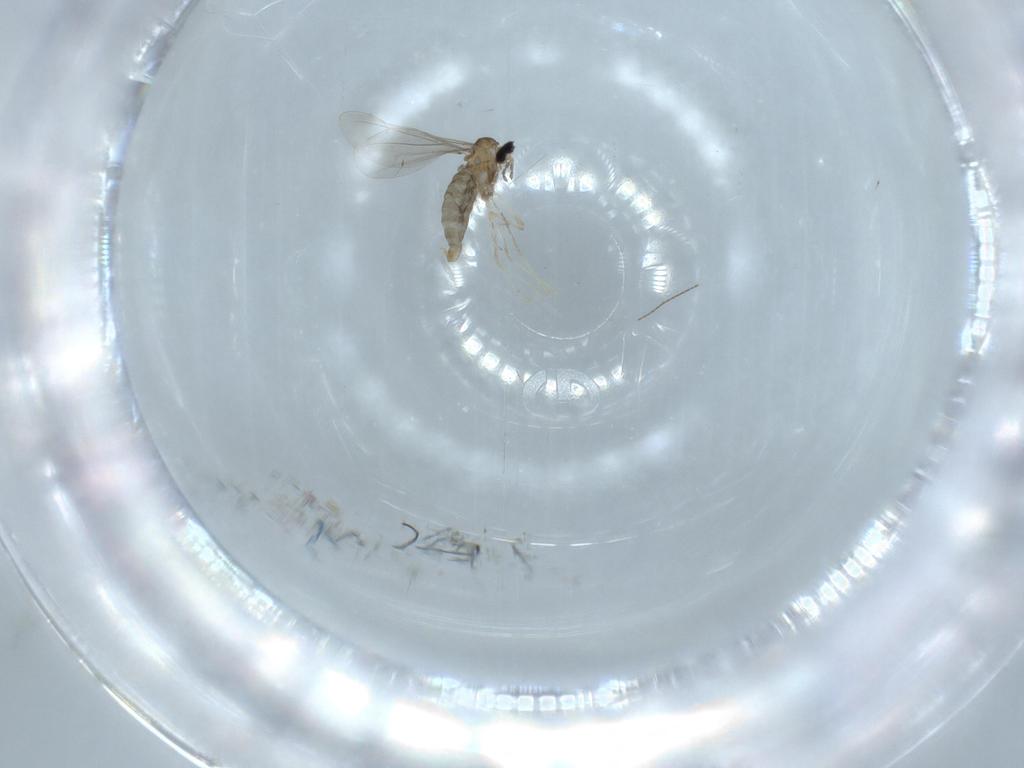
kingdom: Animalia
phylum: Arthropoda
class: Insecta
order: Diptera
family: Cecidomyiidae
